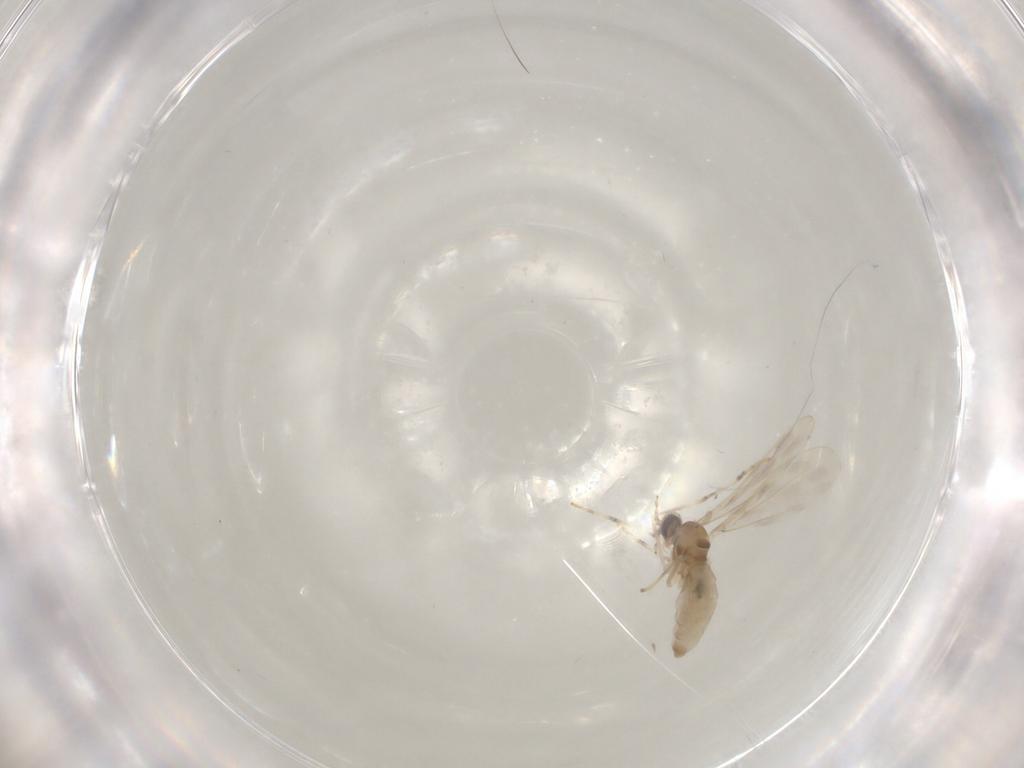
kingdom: Animalia
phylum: Arthropoda
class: Insecta
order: Diptera
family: Cecidomyiidae
